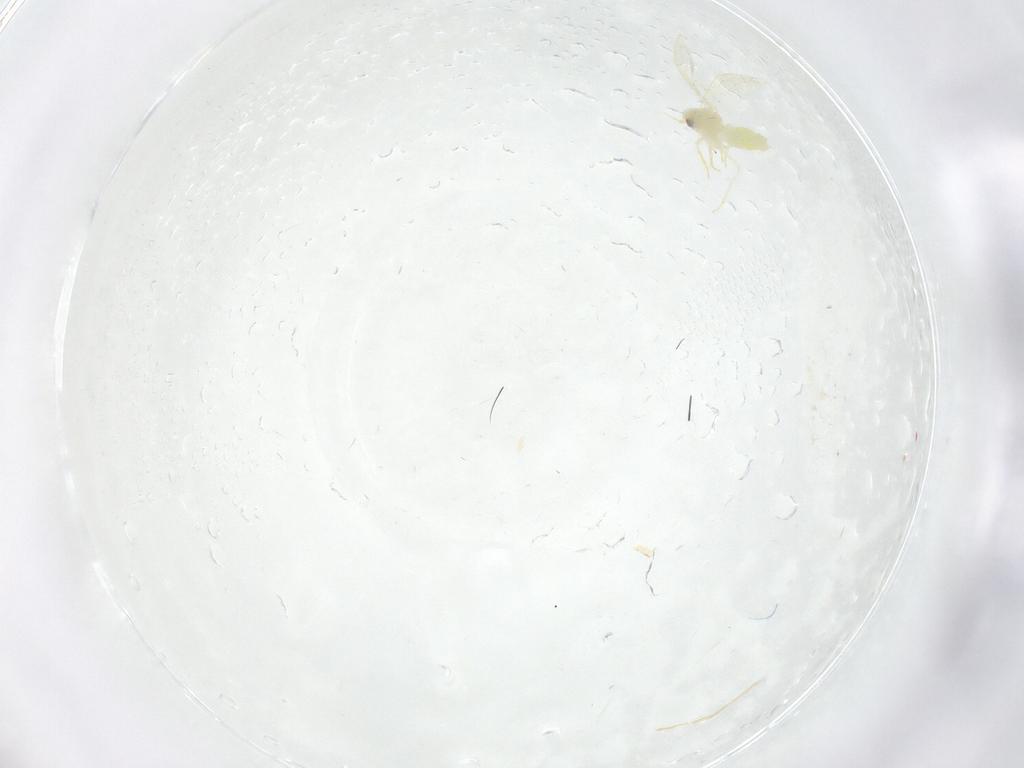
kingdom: Animalia
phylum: Arthropoda
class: Insecta
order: Hemiptera
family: Aleyrodidae
